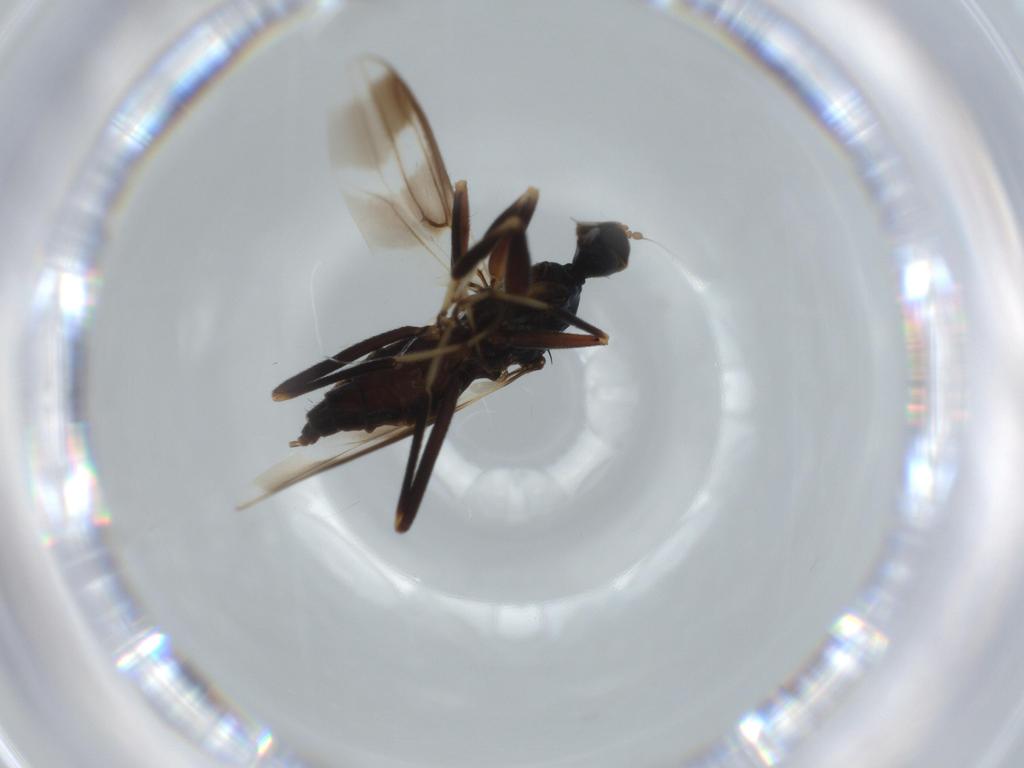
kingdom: Animalia
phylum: Arthropoda
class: Insecta
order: Diptera
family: Hybotidae
